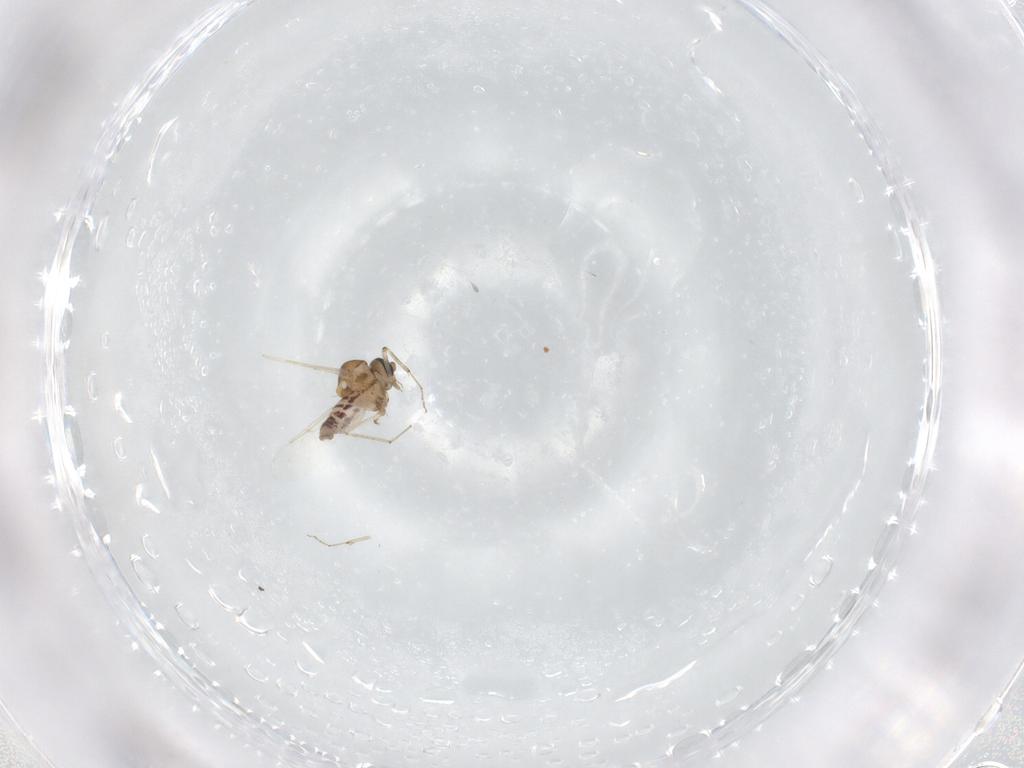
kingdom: Animalia
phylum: Arthropoda
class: Insecta
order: Diptera
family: Ceratopogonidae
